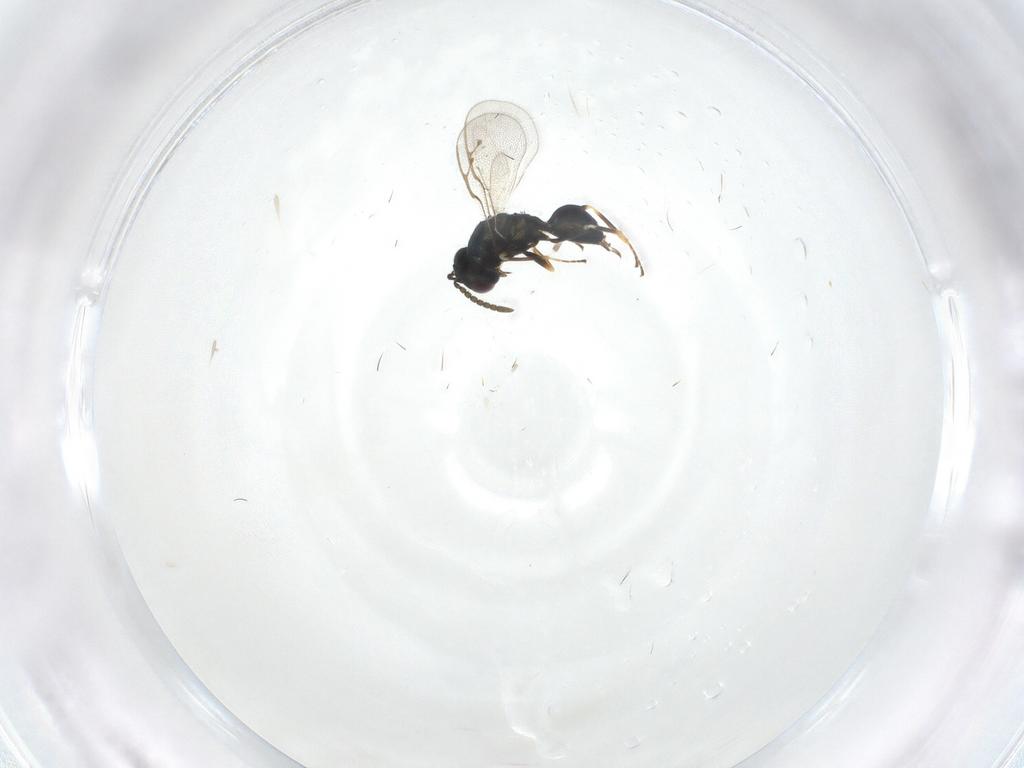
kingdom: Animalia
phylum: Arthropoda
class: Insecta
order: Hymenoptera
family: Pteromalidae
